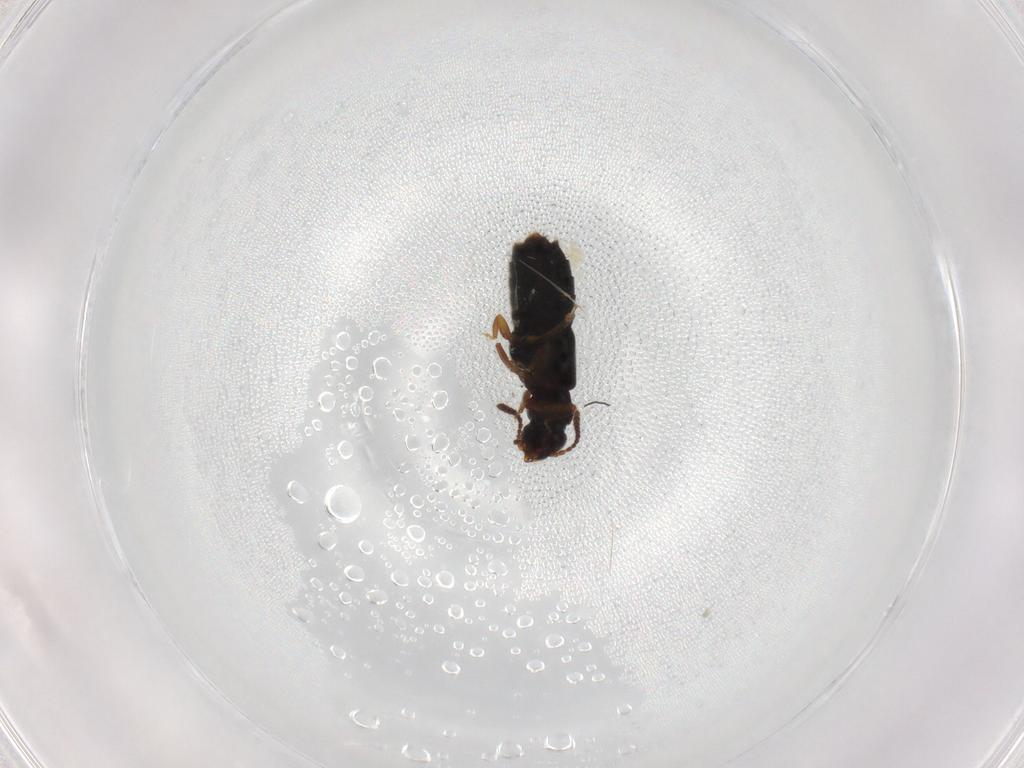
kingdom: Animalia
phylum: Arthropoda
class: Insecta
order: Coleoptera
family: Staphylinidae
